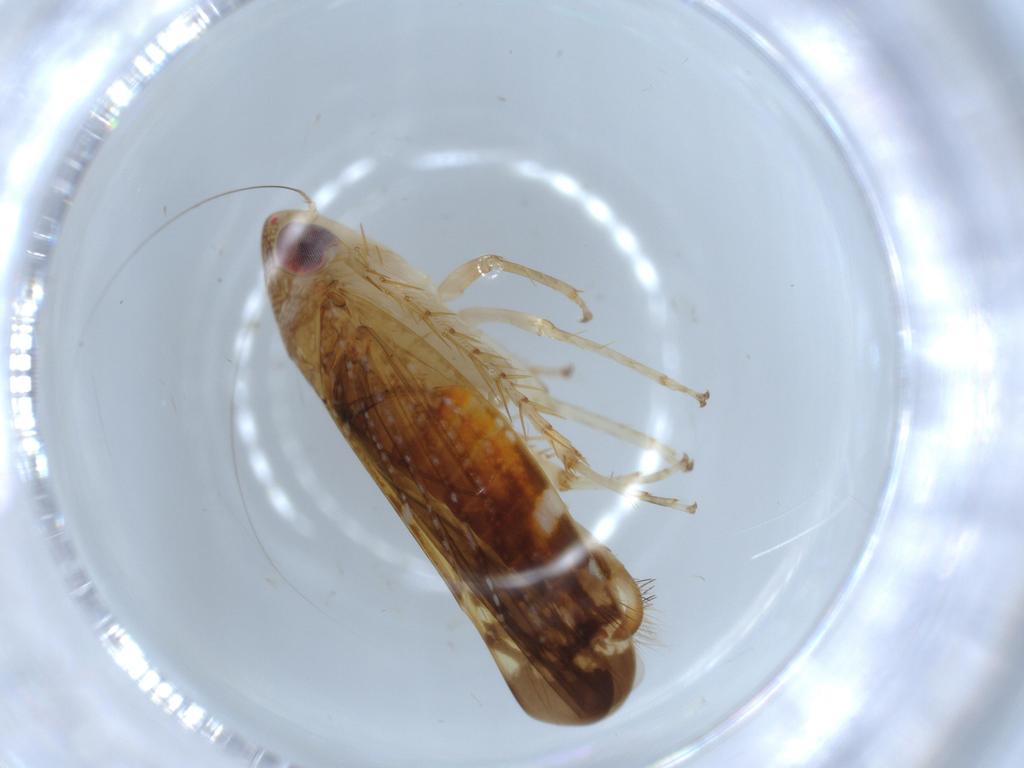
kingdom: Animalia
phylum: Arthropoda
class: Insecta
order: Hemiptera
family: Cicadellidae
